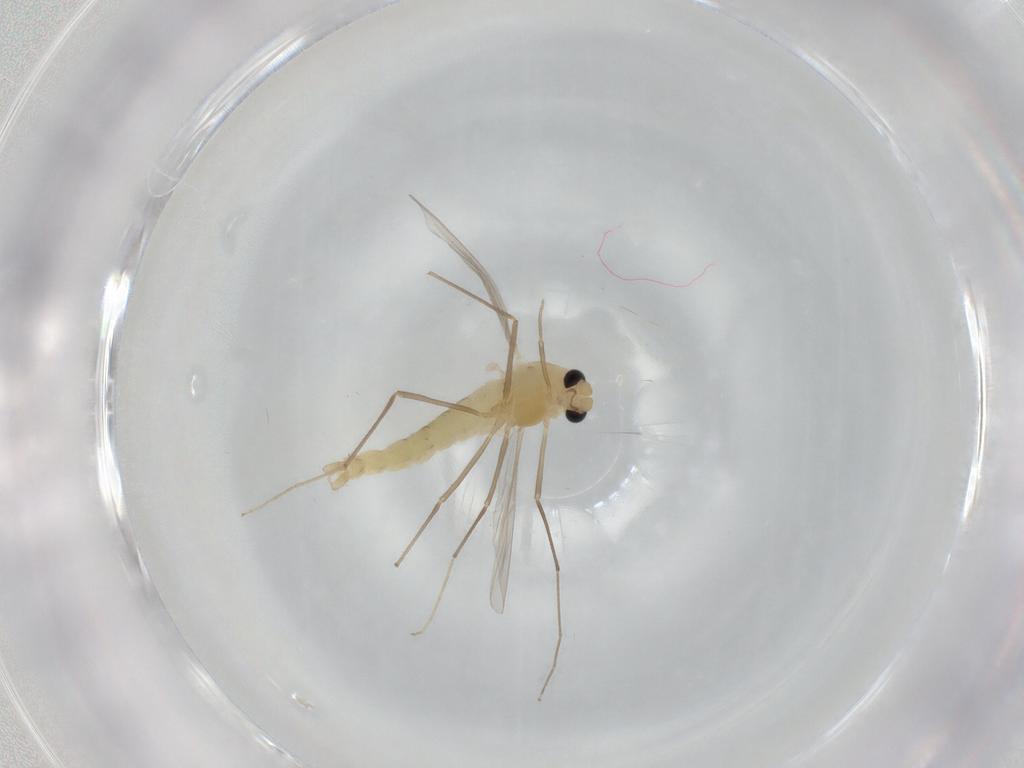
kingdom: Animalia
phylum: Arthropoda
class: Insecta
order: Diptera
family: Chironomidae
